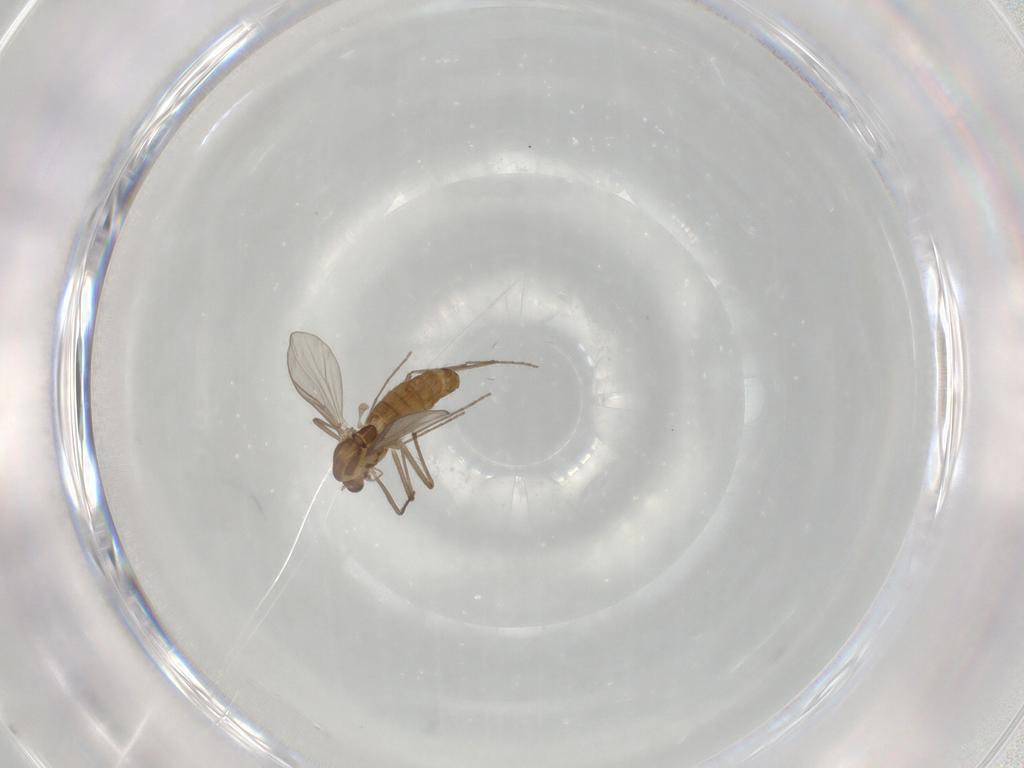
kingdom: Animalia
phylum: Arthropoda
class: Insecta
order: Diptera
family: Chironomidae
